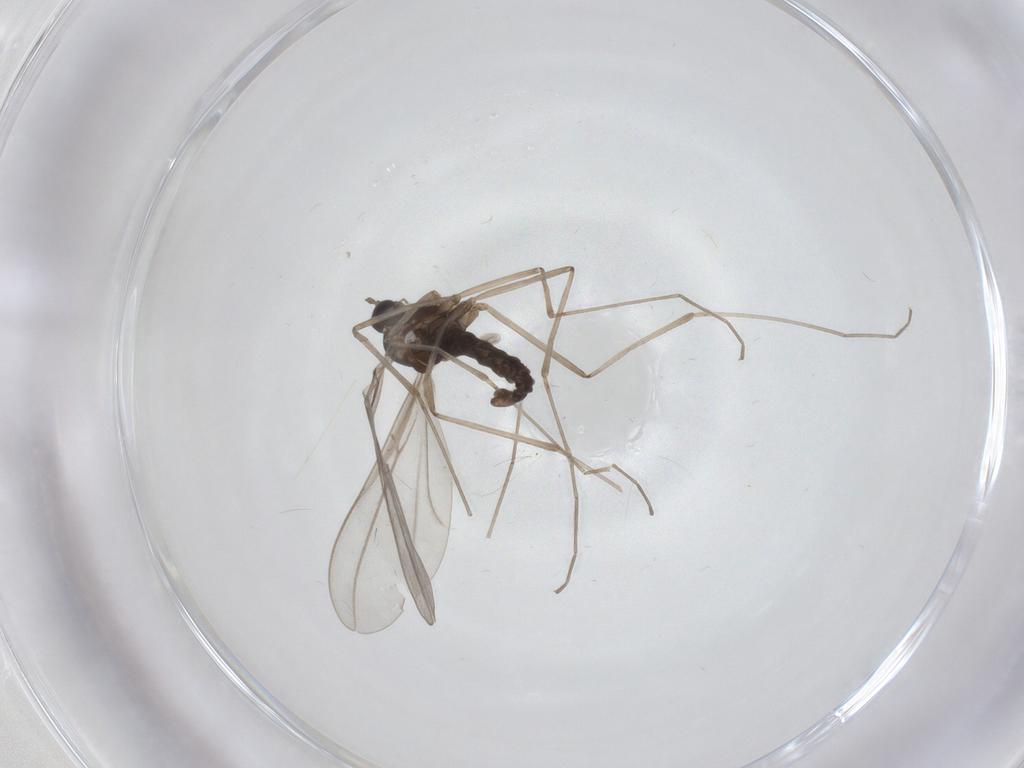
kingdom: Animalia
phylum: Arthropoda
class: Insecta
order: Diptera
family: Cecidomyiidae
